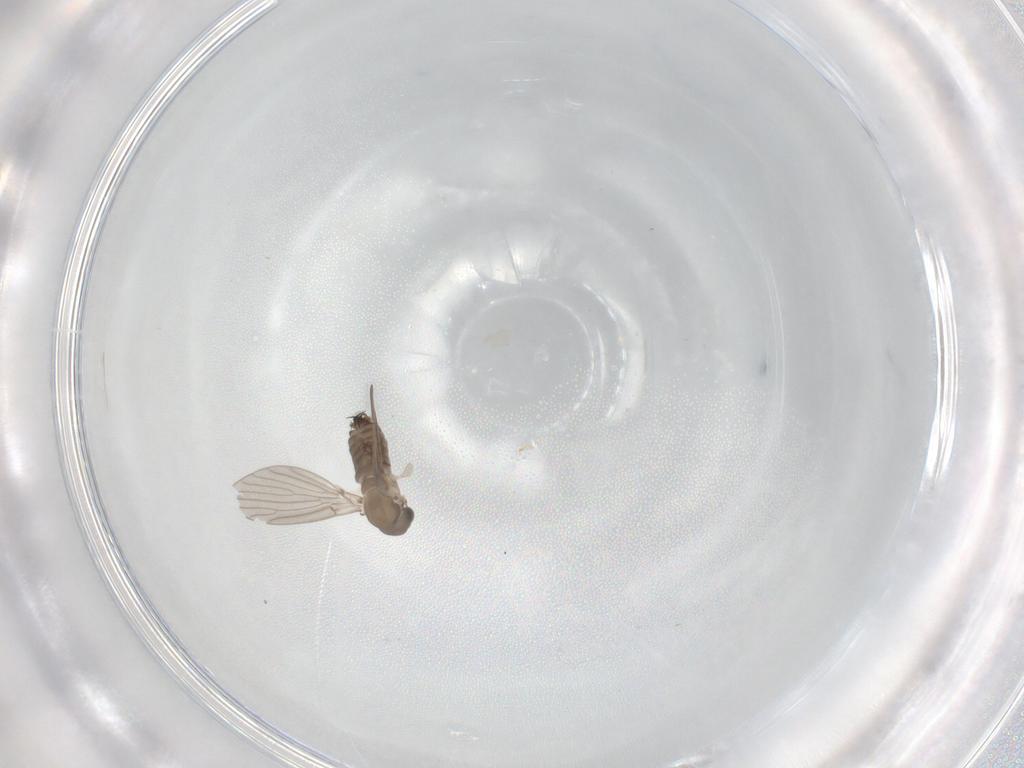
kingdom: Animalia
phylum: Arthropoda
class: Insecta
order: Diptera
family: Psychodidae
